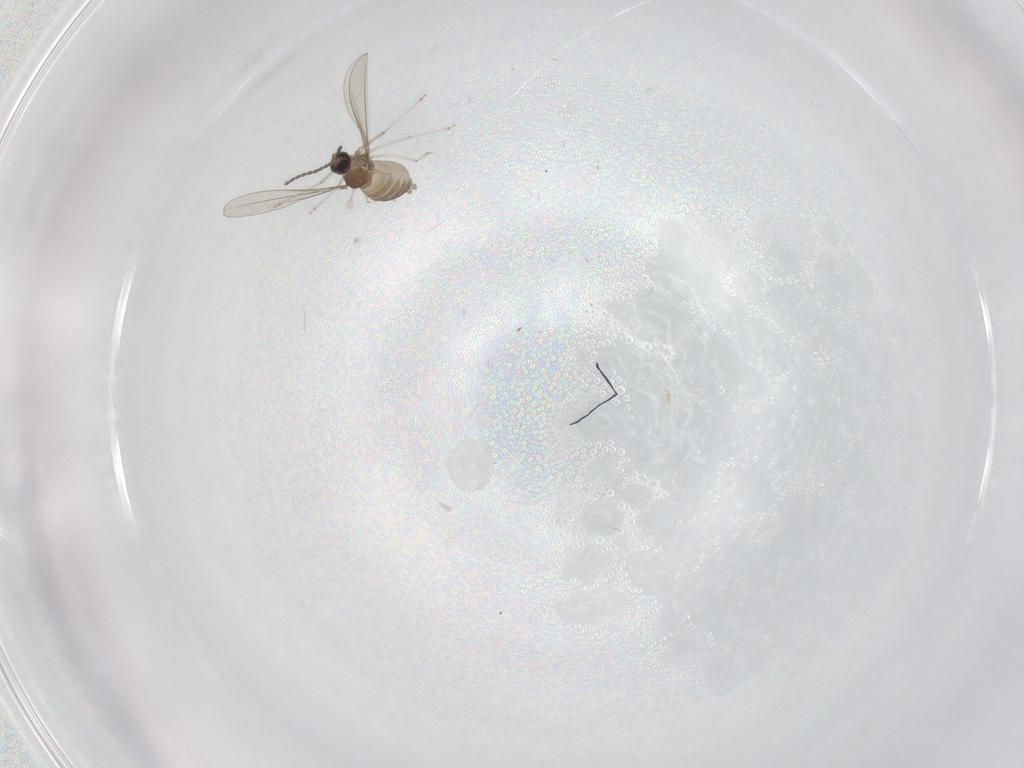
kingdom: Animalia
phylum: Arthropoda
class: Insecta
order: Diptera
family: Cecidomyiidae
